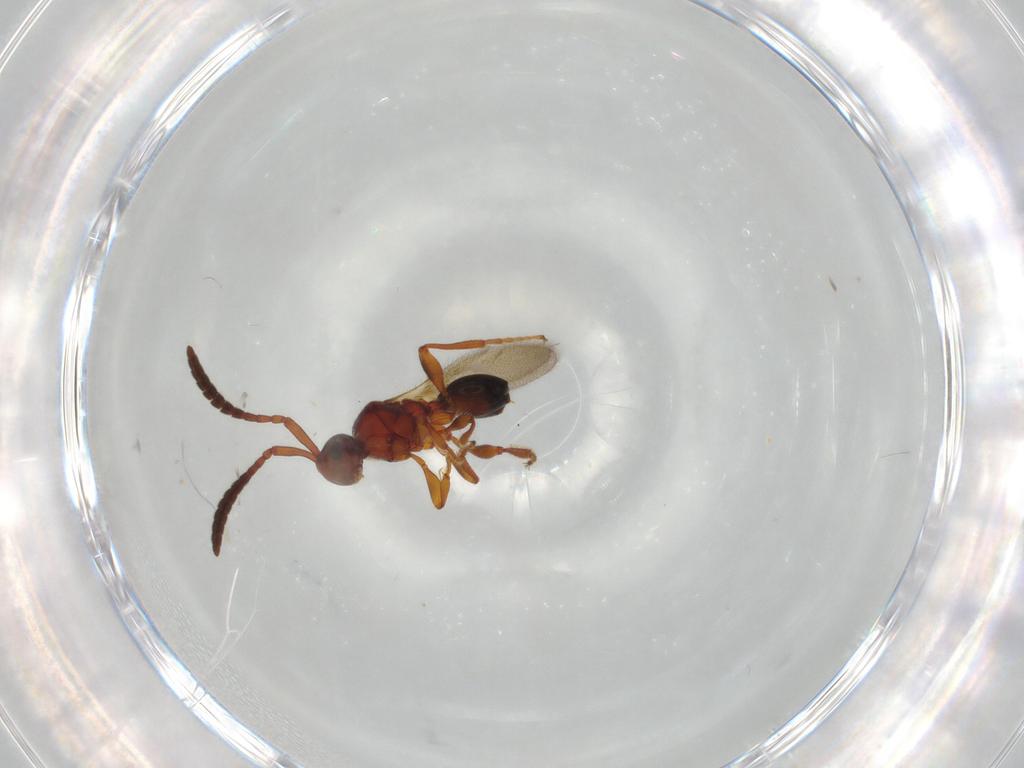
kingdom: Animalia
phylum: Arthropoda
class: Insecta
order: Hymenoptera
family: Diapriidae
